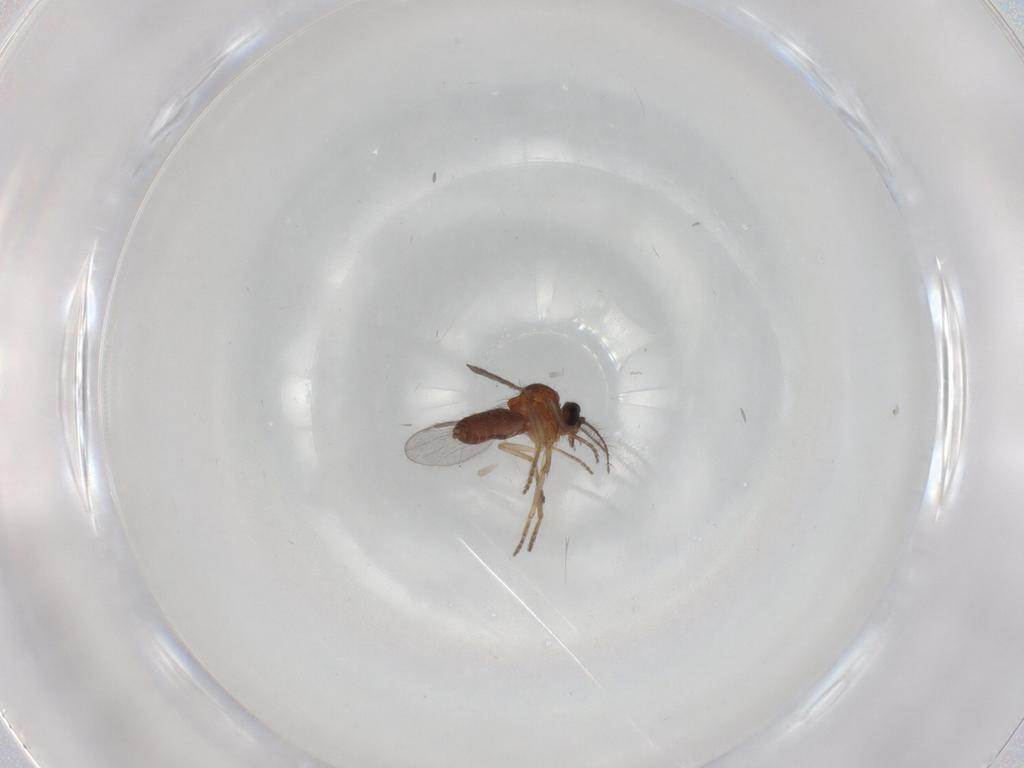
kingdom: Animalia
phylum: Arthropoda
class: Insecta
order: Diptera
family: Ceratopogonidae
